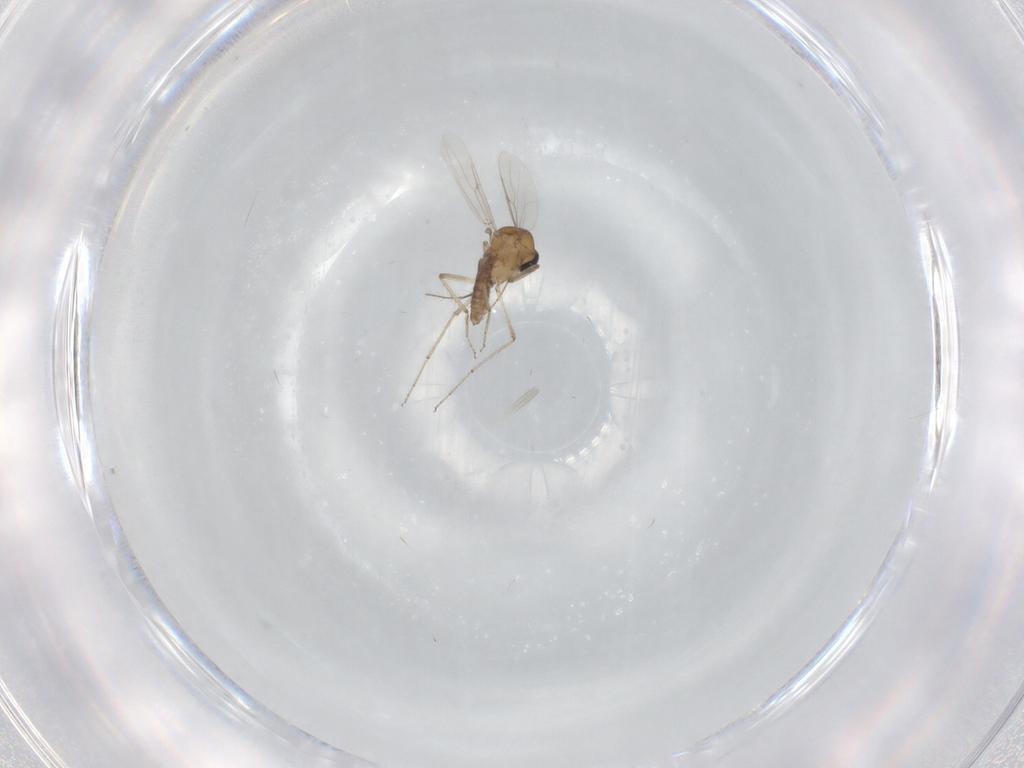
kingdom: Animalia
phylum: Arthropoda
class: Insecta
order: Diptera
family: Ceratopogonidae
